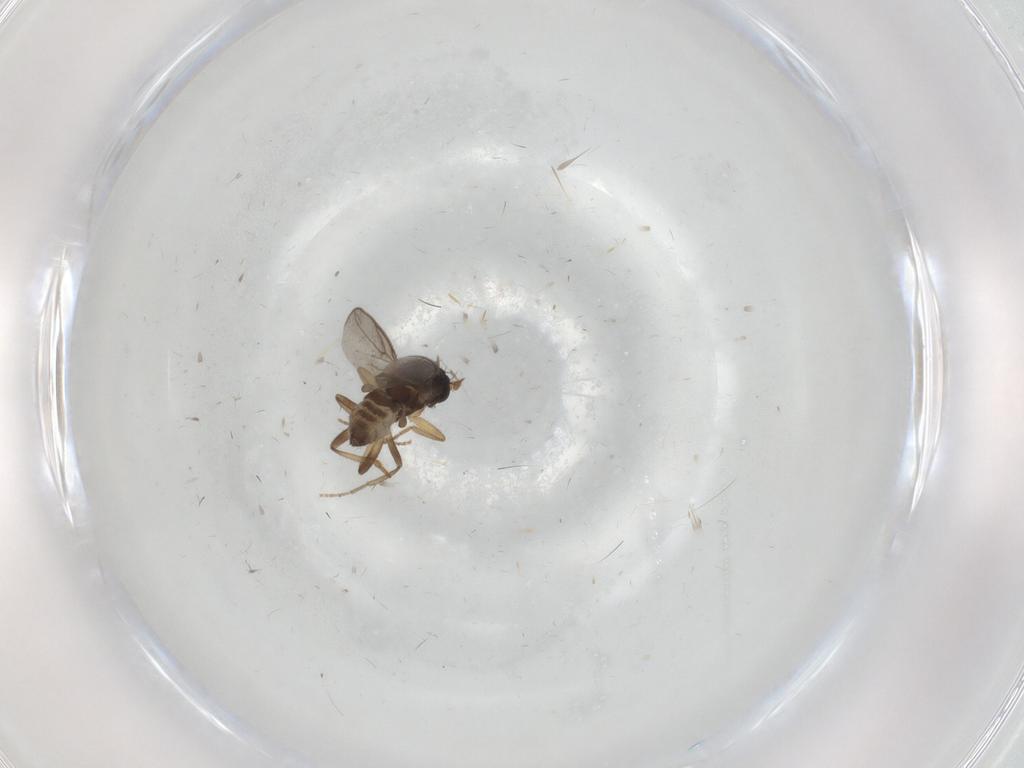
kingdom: Animalia
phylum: Arthropoda
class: Insecta
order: Diptera
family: Sphaeroceridae
